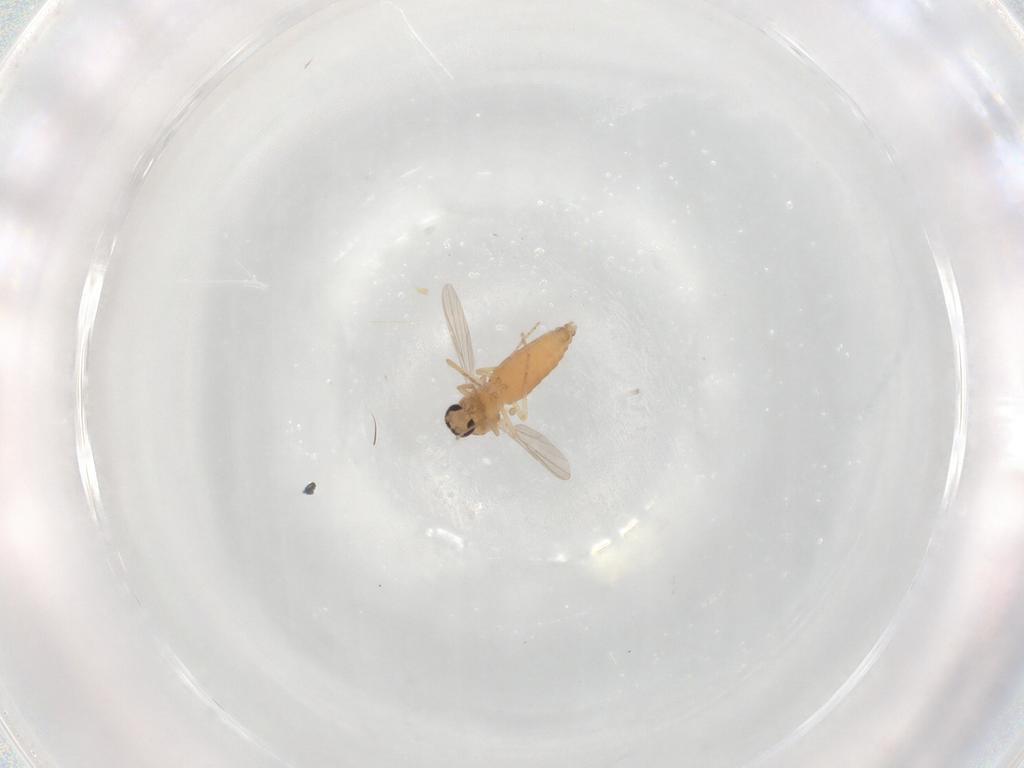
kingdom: Animalia
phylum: Arthropoda
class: Insecta
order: Diptera
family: Ceratopogonidae
